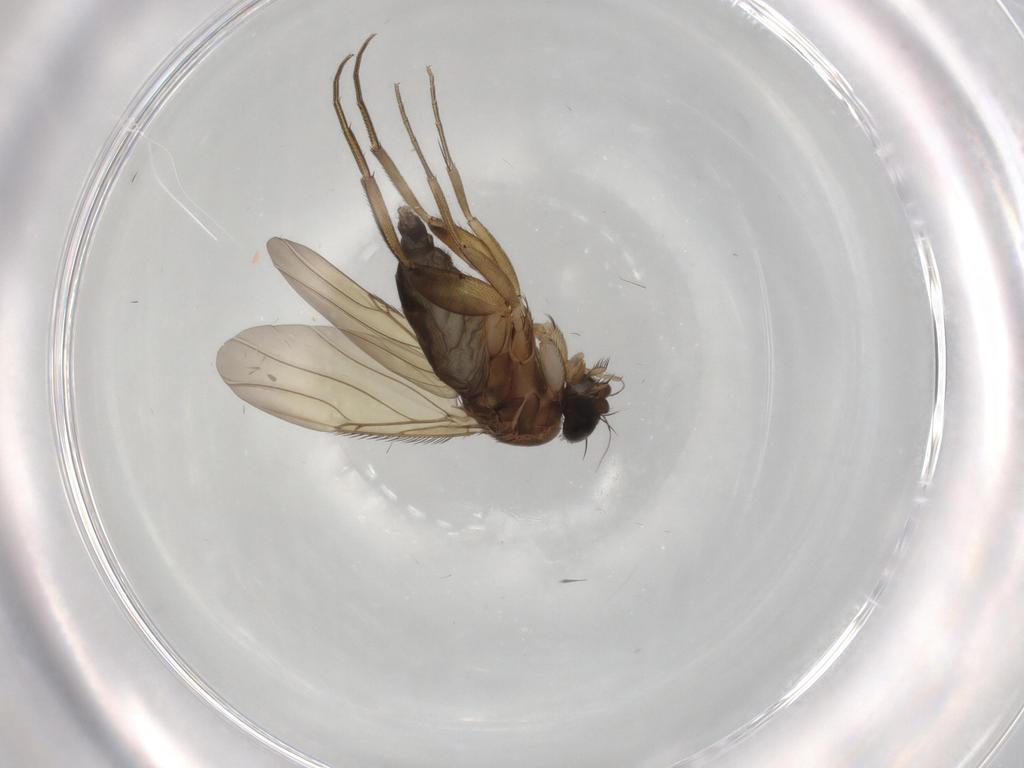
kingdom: Animalia
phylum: Arthropoda
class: Insecta
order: Diptera
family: Phoridae
